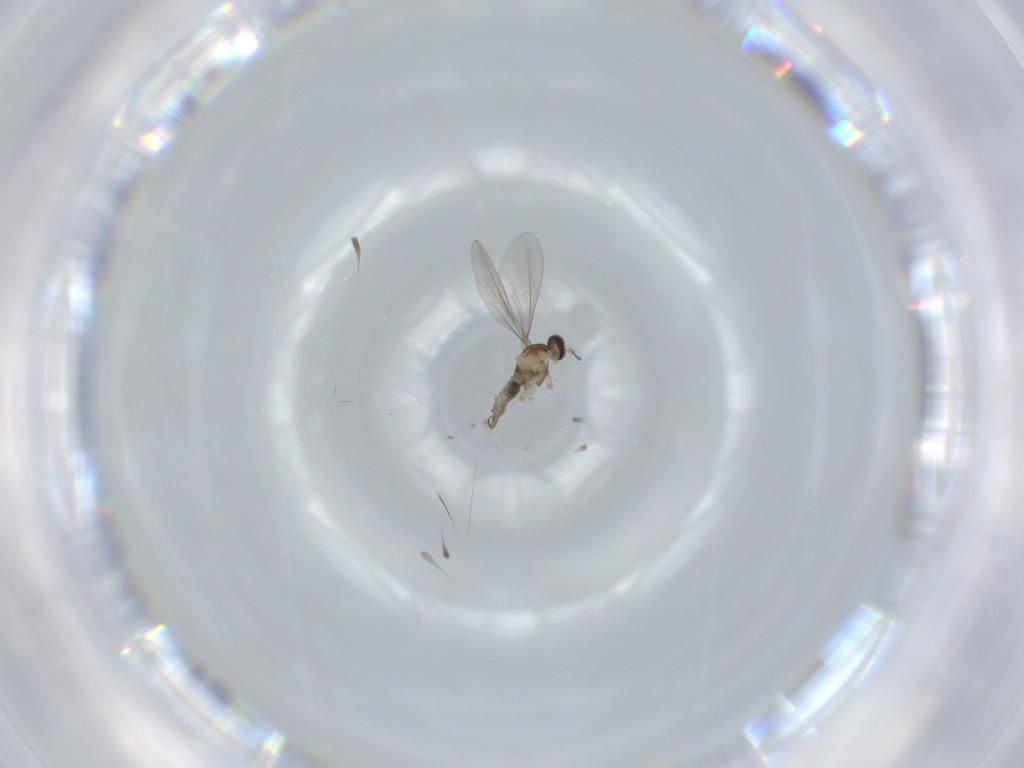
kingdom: Animalia
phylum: Arthropoda
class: Insecta
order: Diptera
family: Cecidomyiidae
